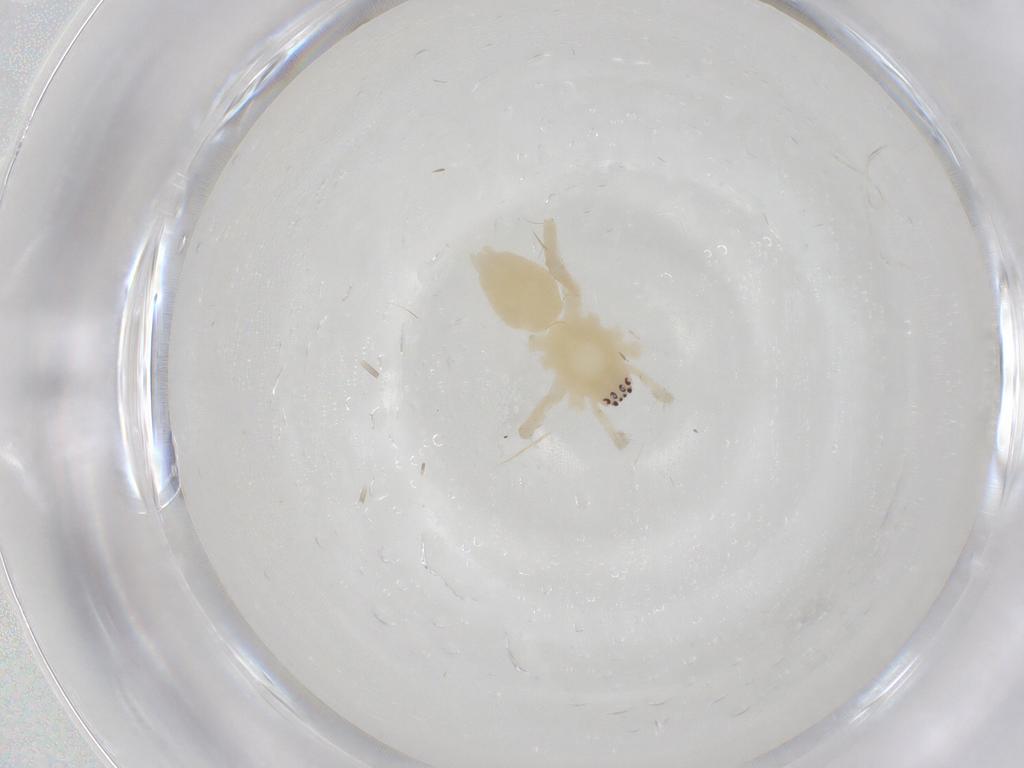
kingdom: Animalia
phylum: Arthropoda
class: Arachnida
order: Araneae
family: Anyphaenidae
